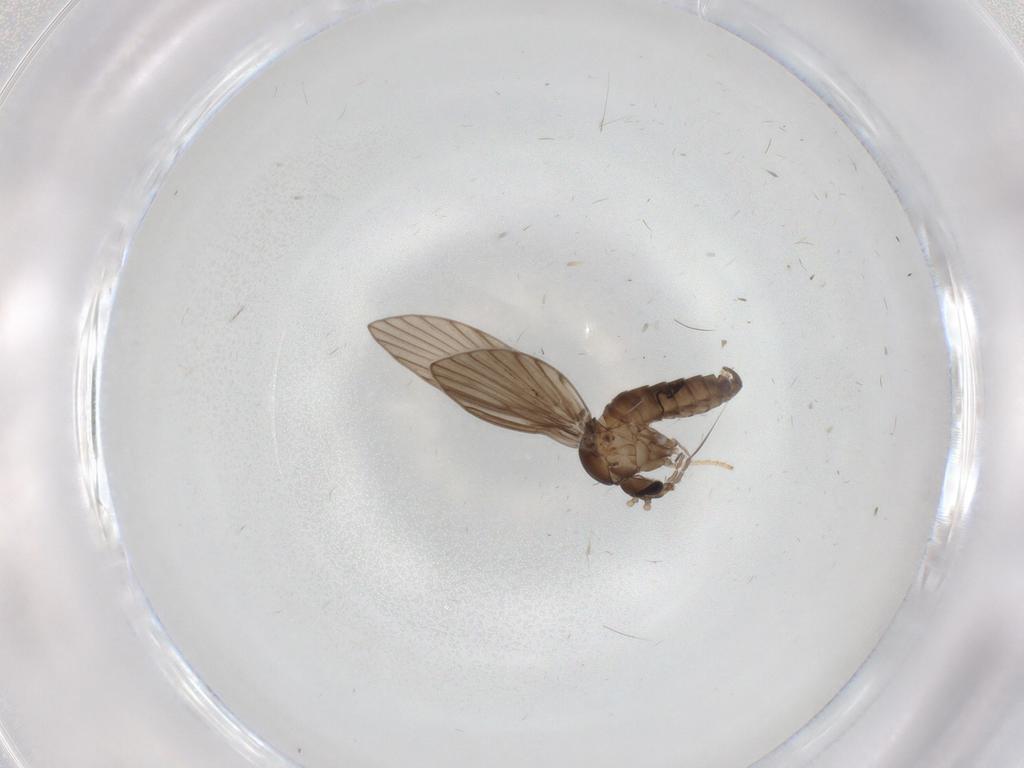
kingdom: Animalia
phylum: Arthropoda
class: Insecta
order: Diptera
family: Psychodidae
